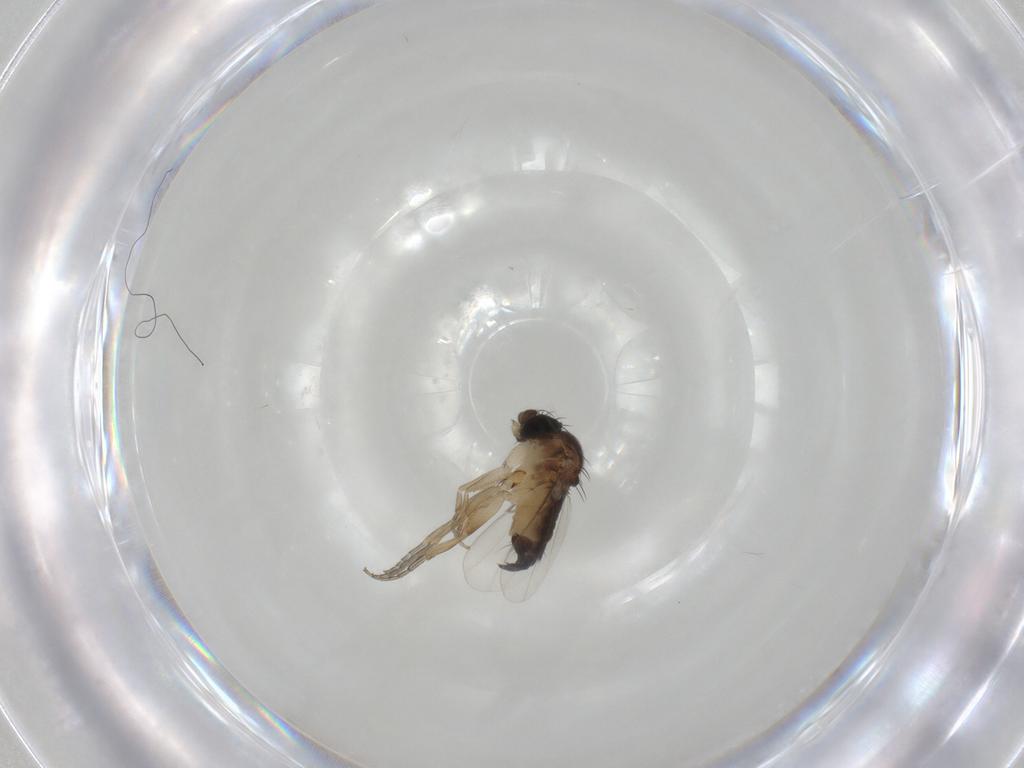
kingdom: Animalia
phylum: Arthropoda
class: Insecta
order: Diptera
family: Phoridae
